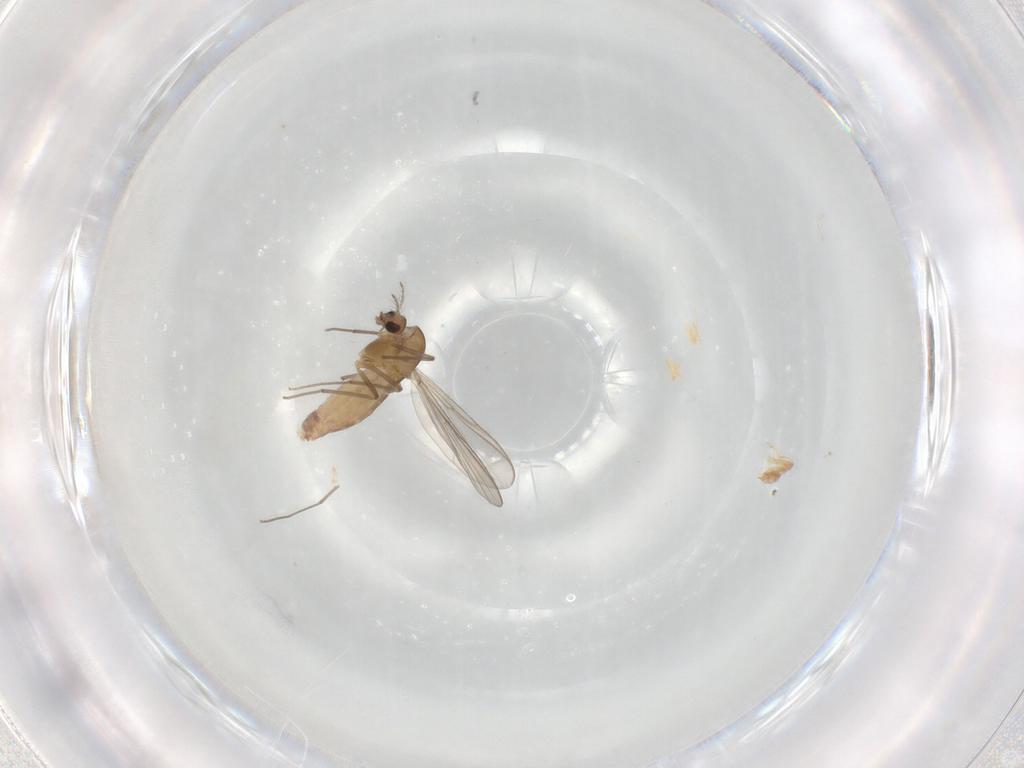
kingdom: Animalia
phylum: Arthropoda
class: Insecta
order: Diptera
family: Chironomidae
